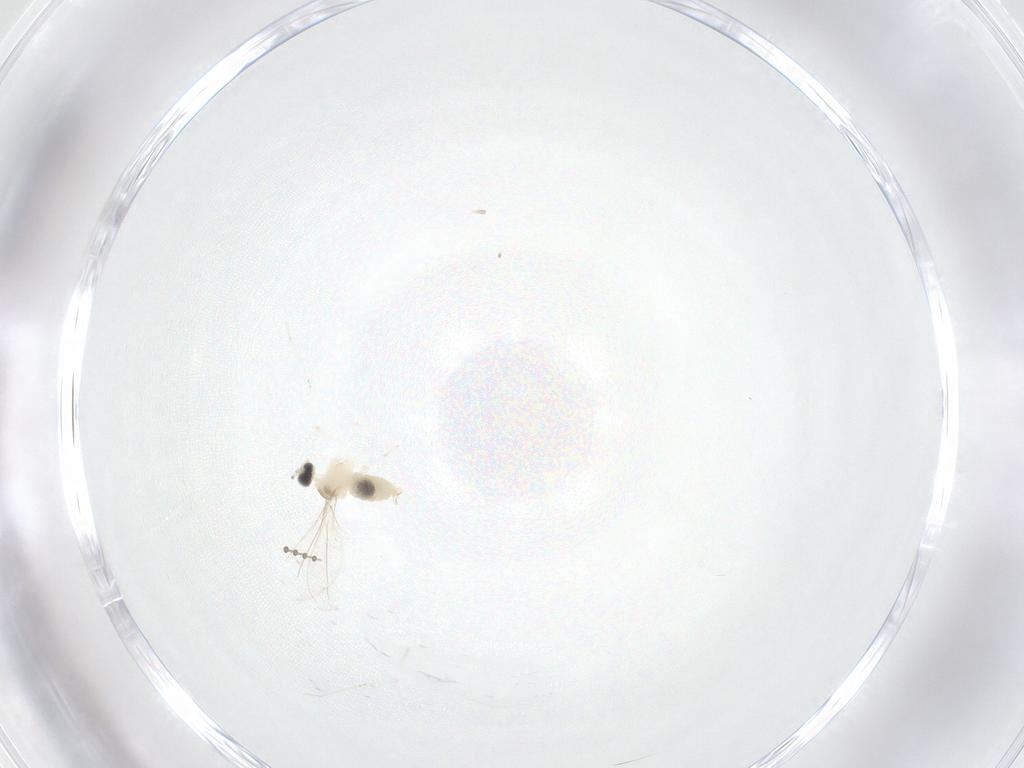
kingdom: Animalia
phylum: Arthropoda
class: Insecta
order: Diptera
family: Cecidomyiidae
